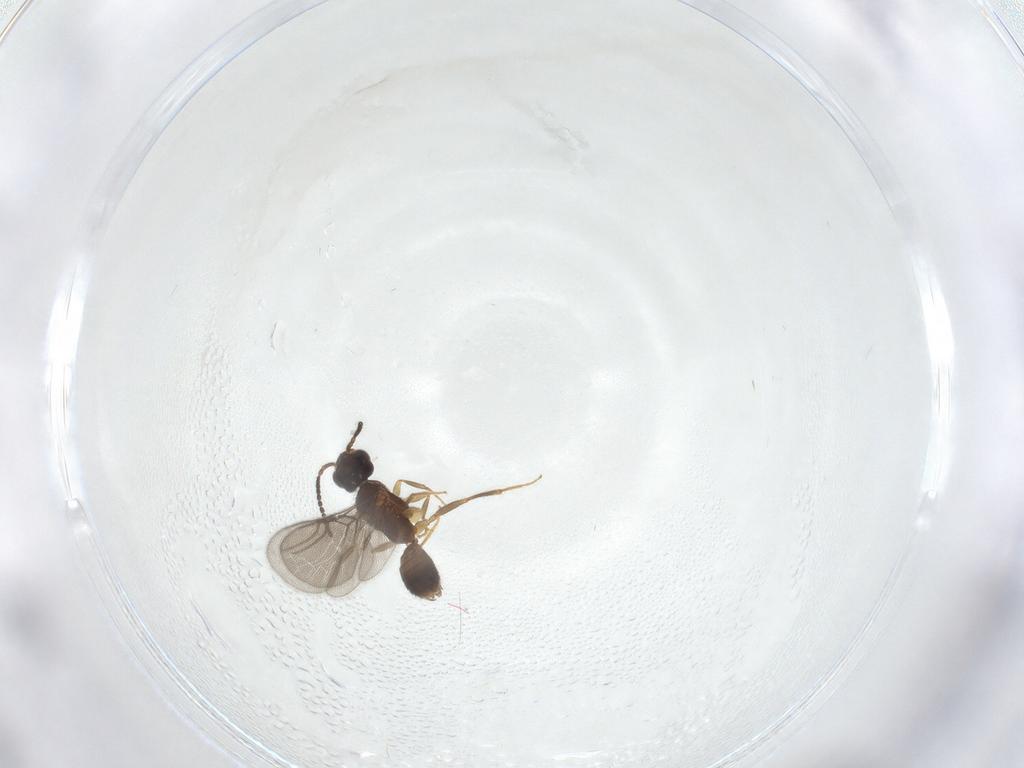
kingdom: Animalia
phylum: Arthropoda
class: Insecta
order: Hymenoptera
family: Bethylidae
